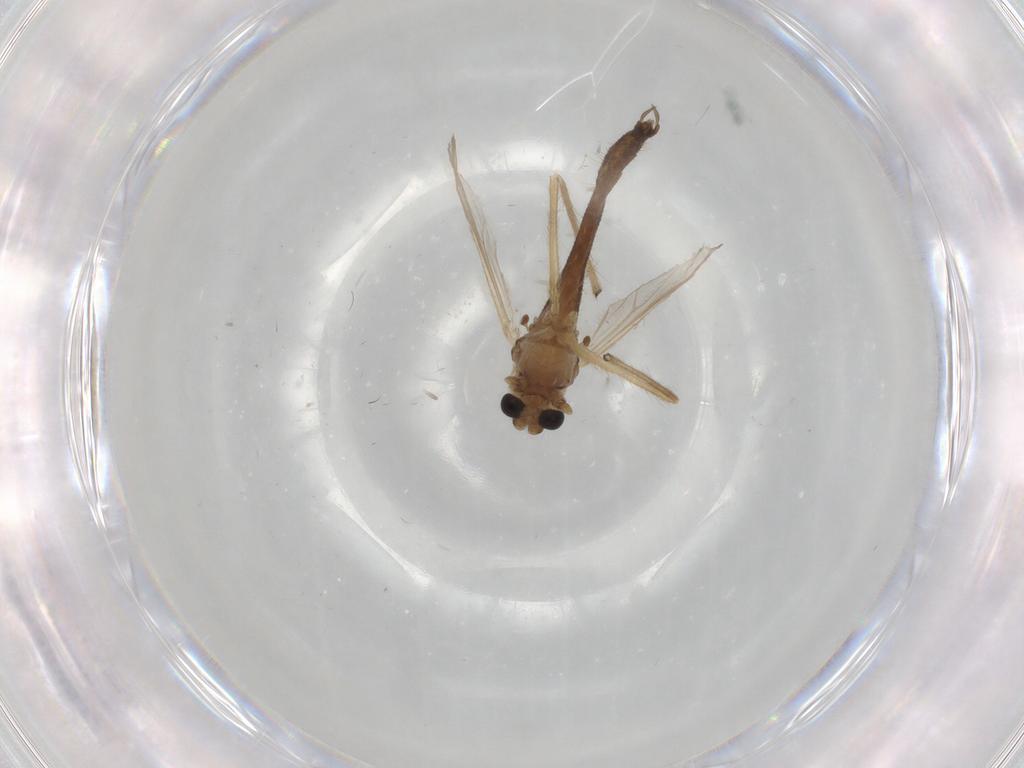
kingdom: Animalia
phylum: Arthropoda
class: Insecta
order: Diptera
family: Chironomidae
